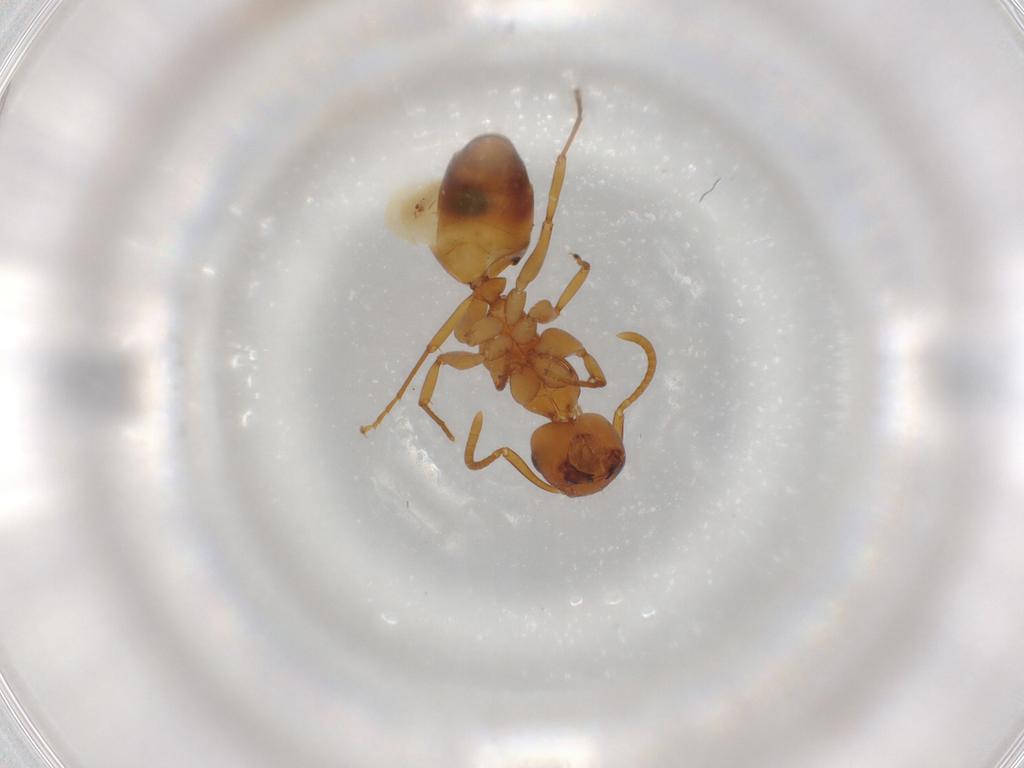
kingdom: Animalia
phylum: Arthropoda
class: Insecta
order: Hymenoptera
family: Formicidae
